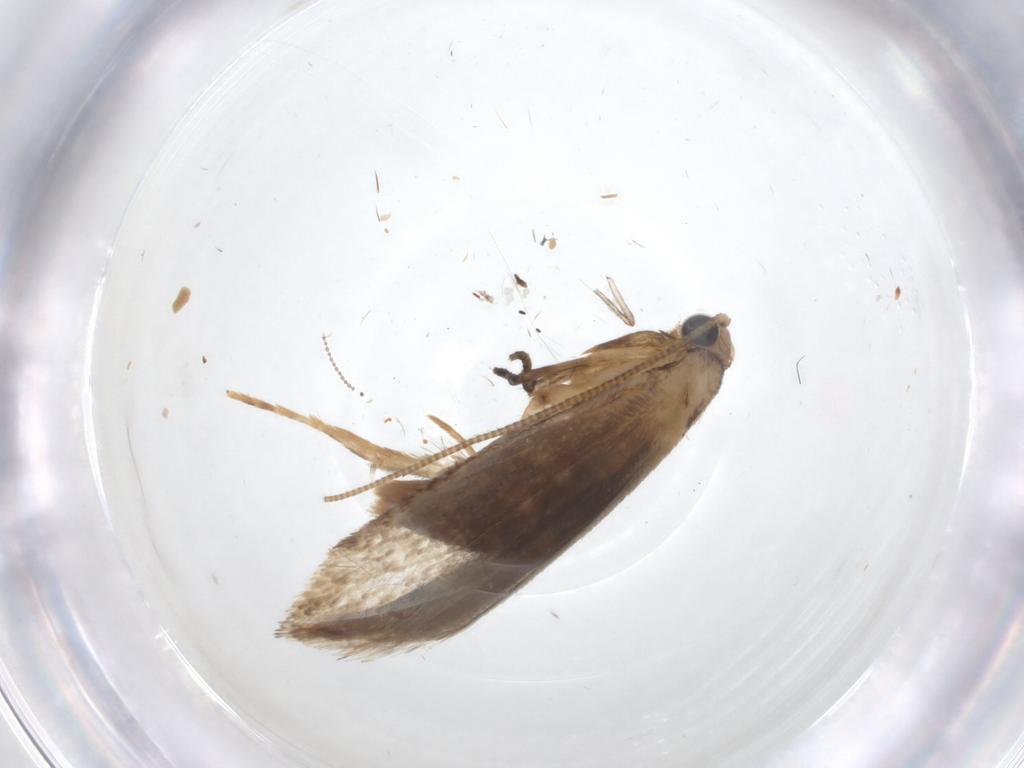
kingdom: Animalia
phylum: Arthropoda
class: Insecta
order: Lepidoptera
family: Tineidae
